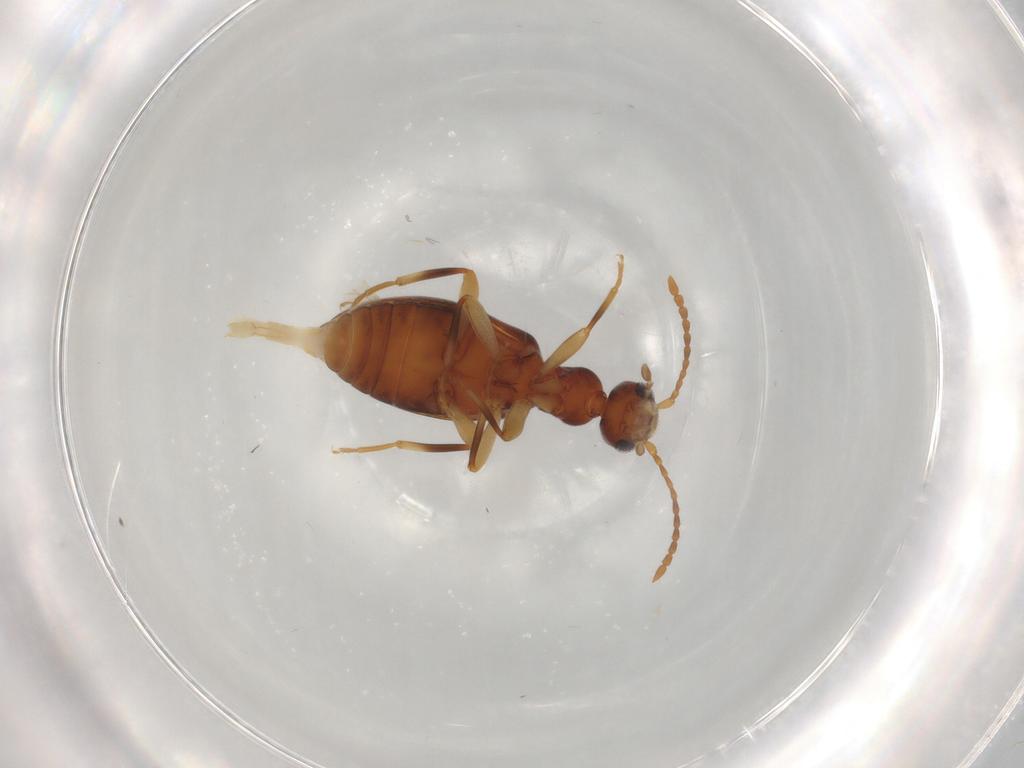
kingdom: Animalia
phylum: Arthropoda
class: Insecta
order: Coleoptera
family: Anthicidae
